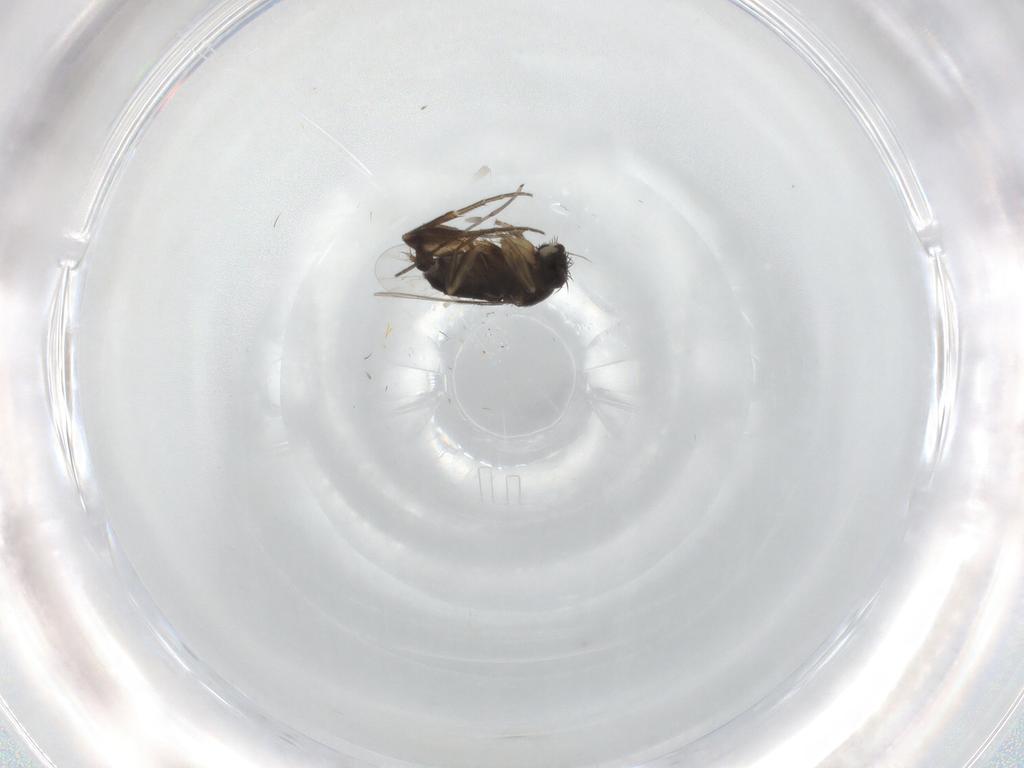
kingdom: Animalia
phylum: Arthropoda
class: Insecta
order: Diptera
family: Phoridae
